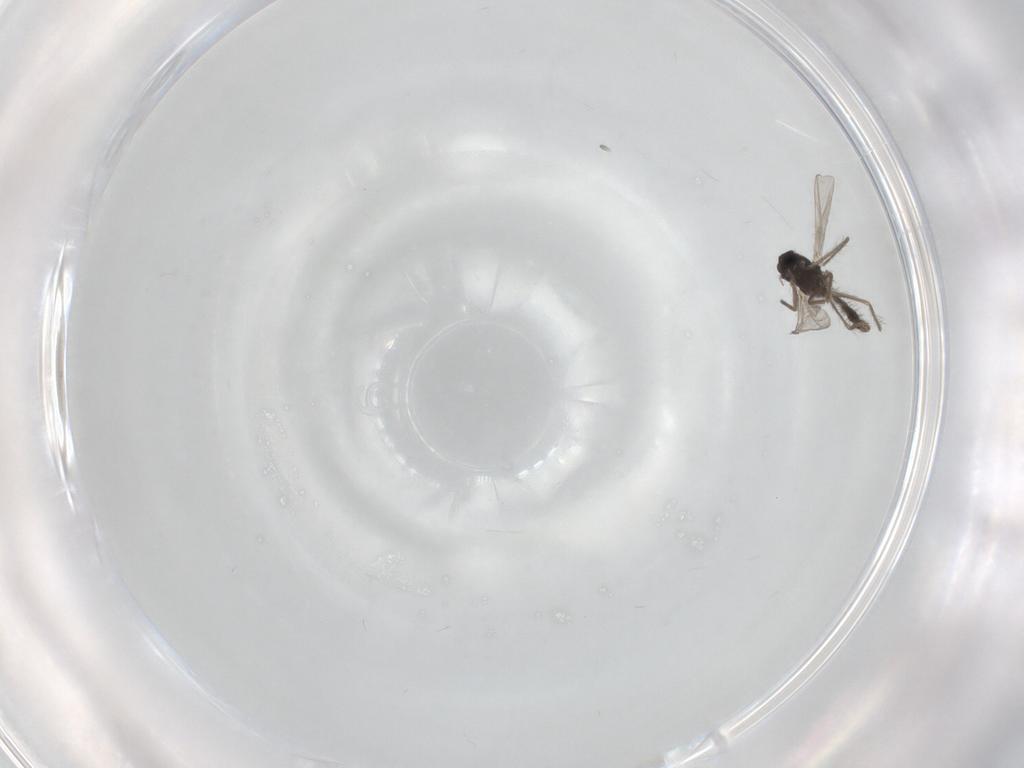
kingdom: Animalia
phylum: Arthropoda
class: Insecta
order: Diptera
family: Chironomidae
